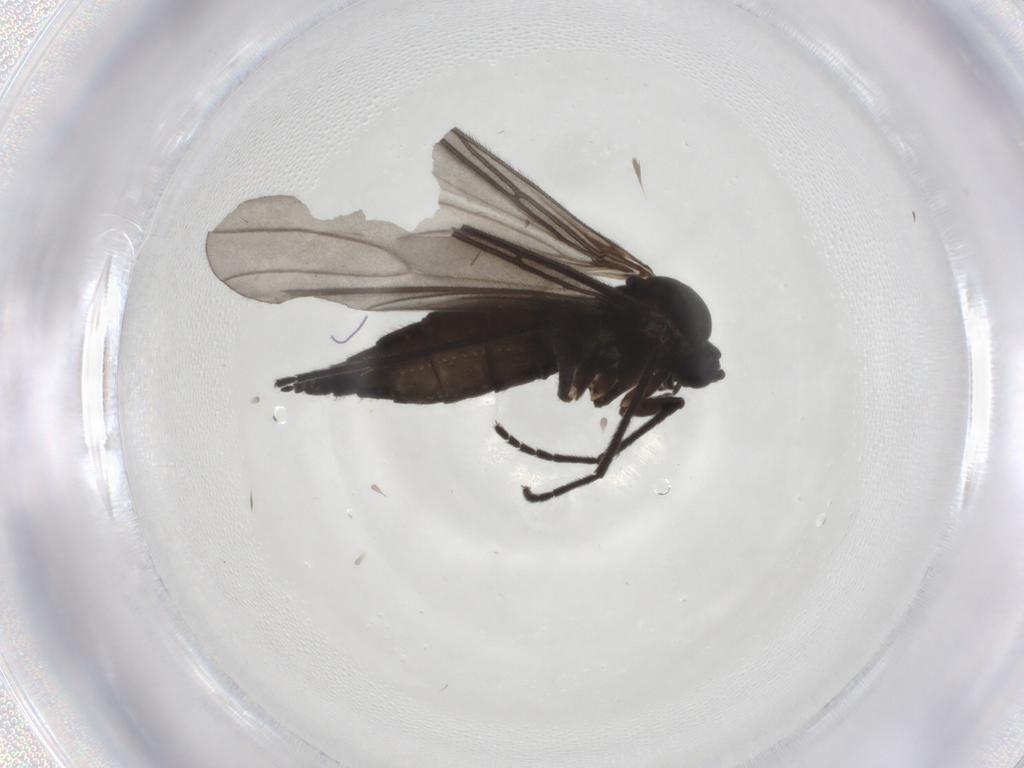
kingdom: Animalia
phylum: Arthropoda
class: Insecta
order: Diptera
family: Sciaridae
